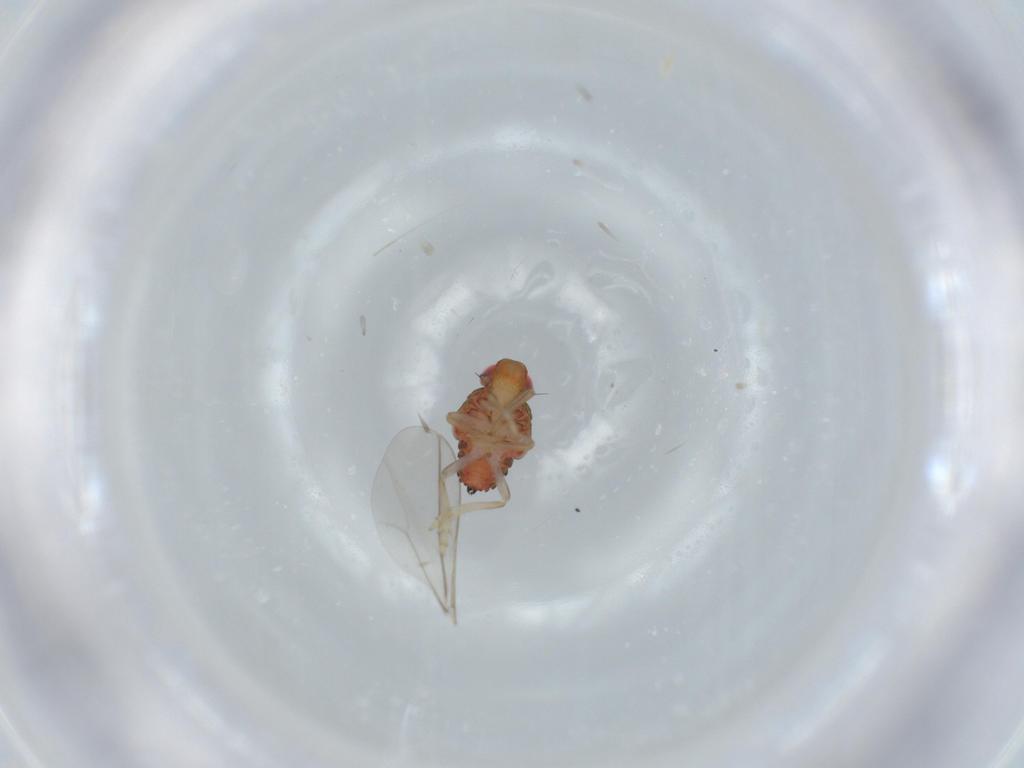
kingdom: Animalia
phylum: Arthropoda
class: Insecta
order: Hemiptera
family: Issidae
